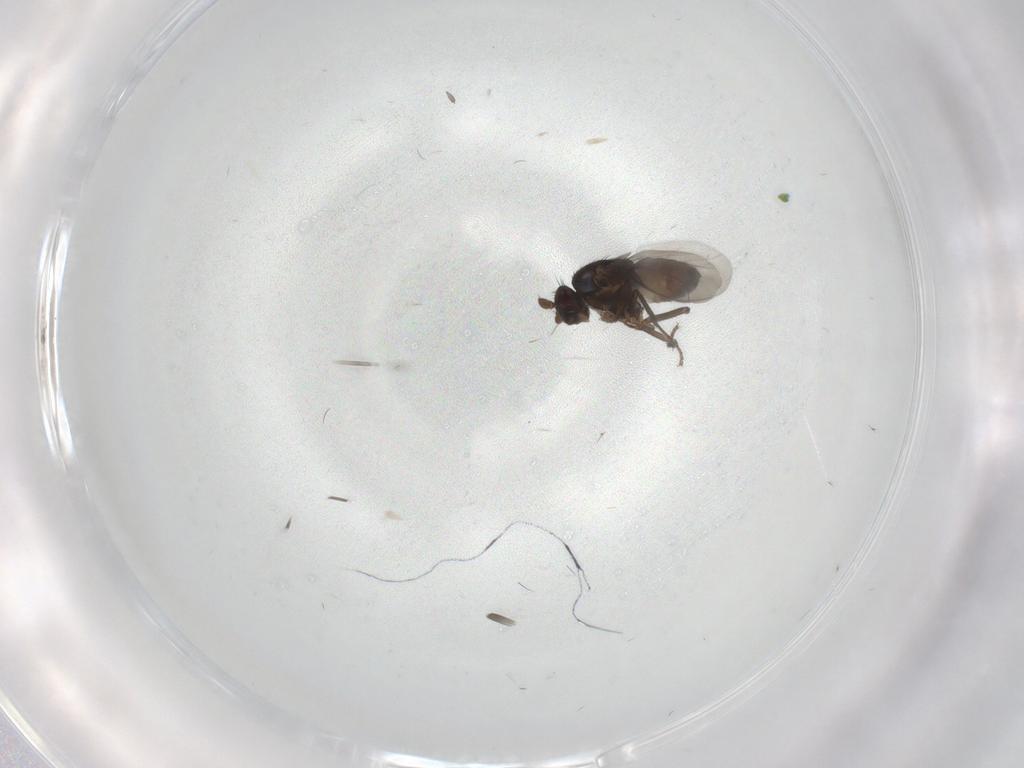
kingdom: Animalia
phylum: Arthropoda
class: Insecta
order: Diptera
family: Sphaeroceridae
